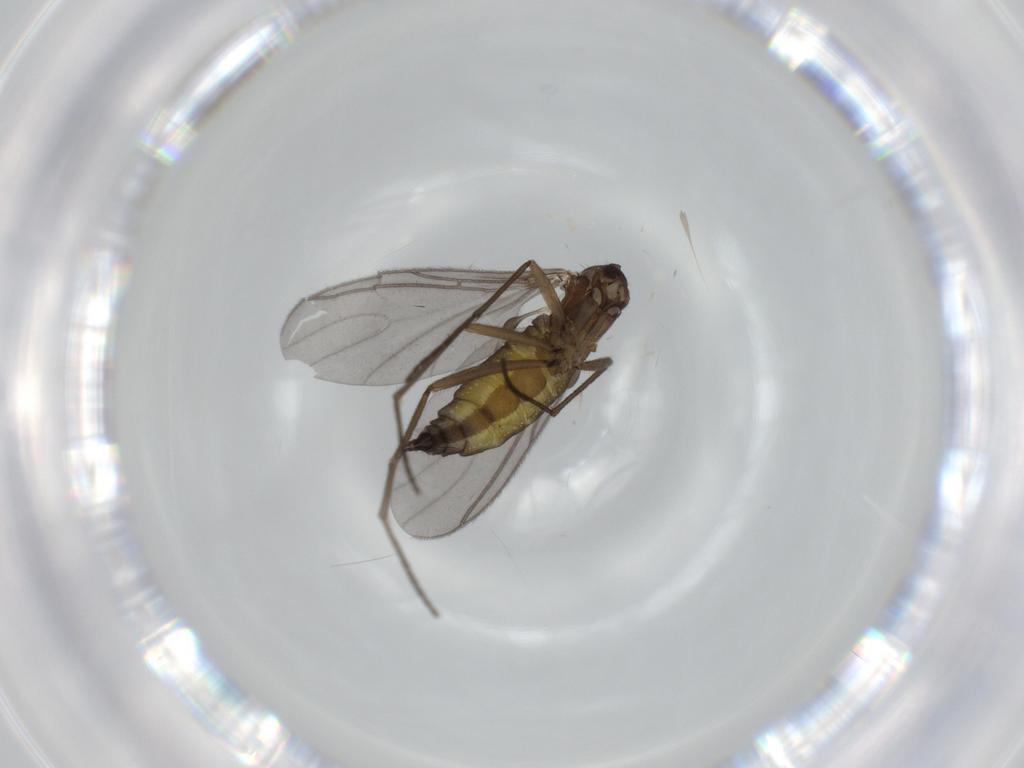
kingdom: Animalia
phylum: Arthropoda
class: Insecta
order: Diptera
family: Sciaridae
